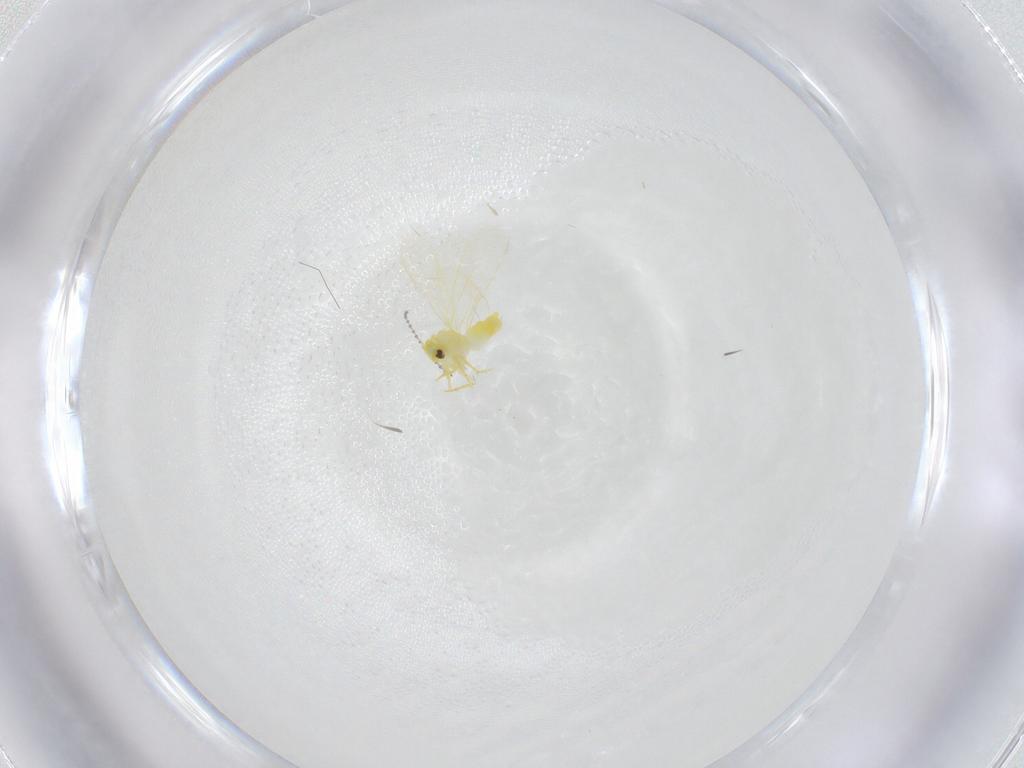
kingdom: Animalia
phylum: Arthropoda
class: Insecta
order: Hemiptera
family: Aleyrodidae
